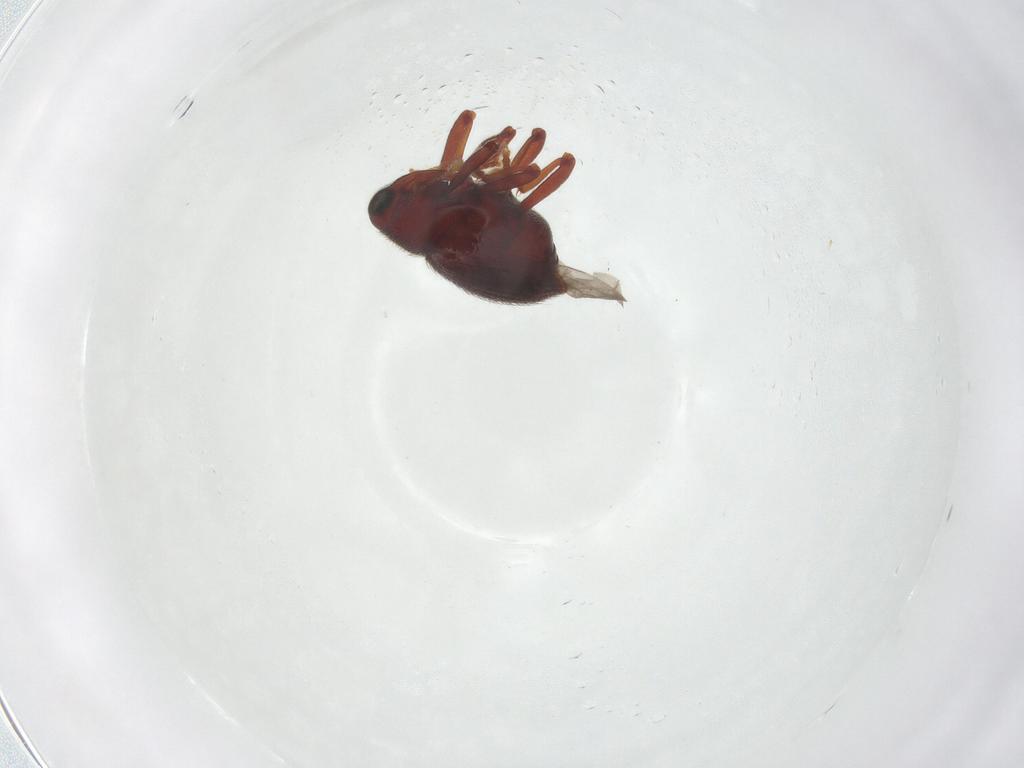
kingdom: Animalia
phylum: Arthropoda
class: Insecta
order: Coleoptera
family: Curculionidae
